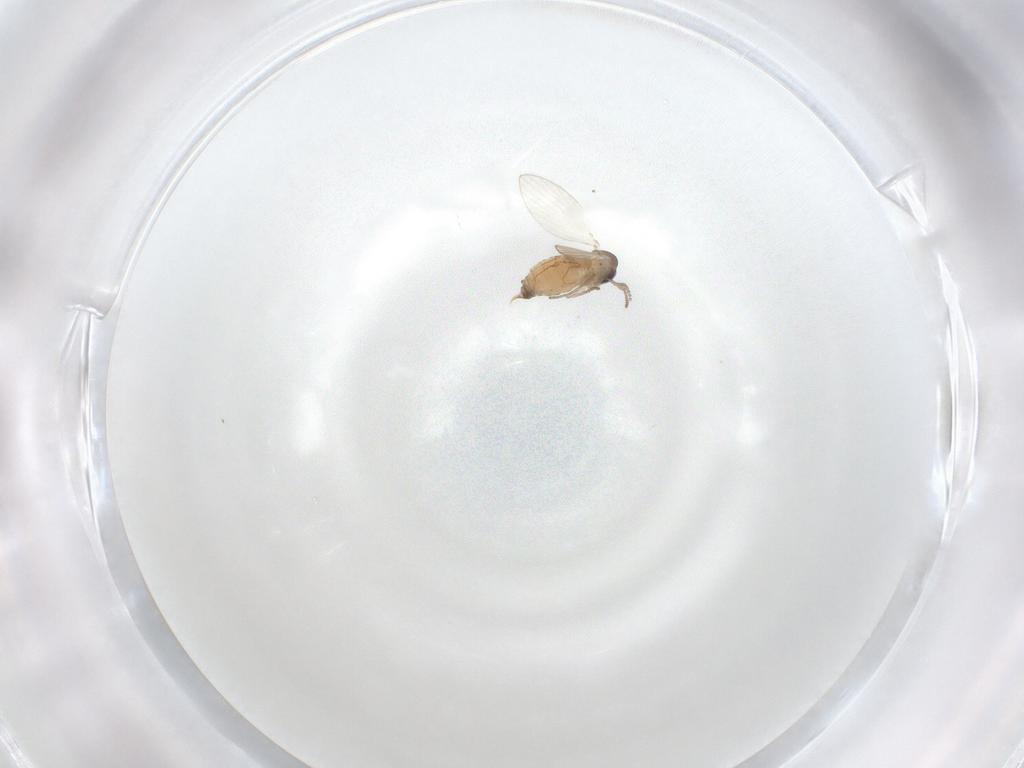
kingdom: Animalia
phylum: Arthropoda
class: Insecta
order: Diptera
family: Psychodidae
